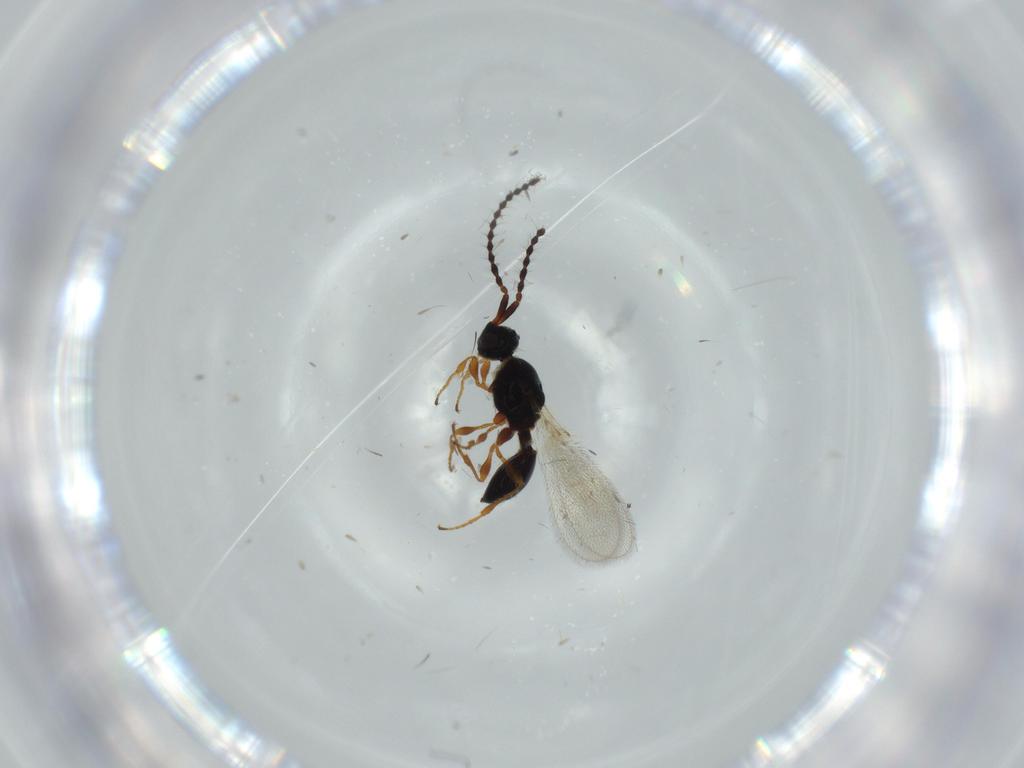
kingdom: Animalia
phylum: Arthropoda
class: Insecta
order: Hymenoptera
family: Diapriidae
